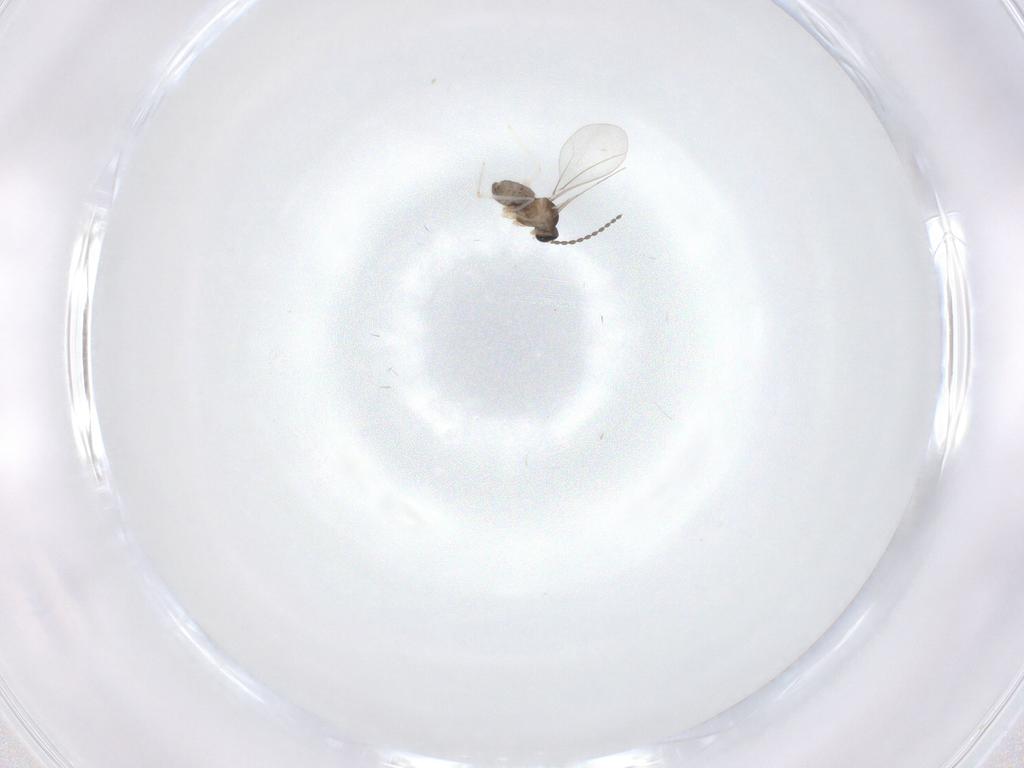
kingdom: Animalia
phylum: Arthropoda
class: Insecta
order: Diptera
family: Cecidomyiidae
